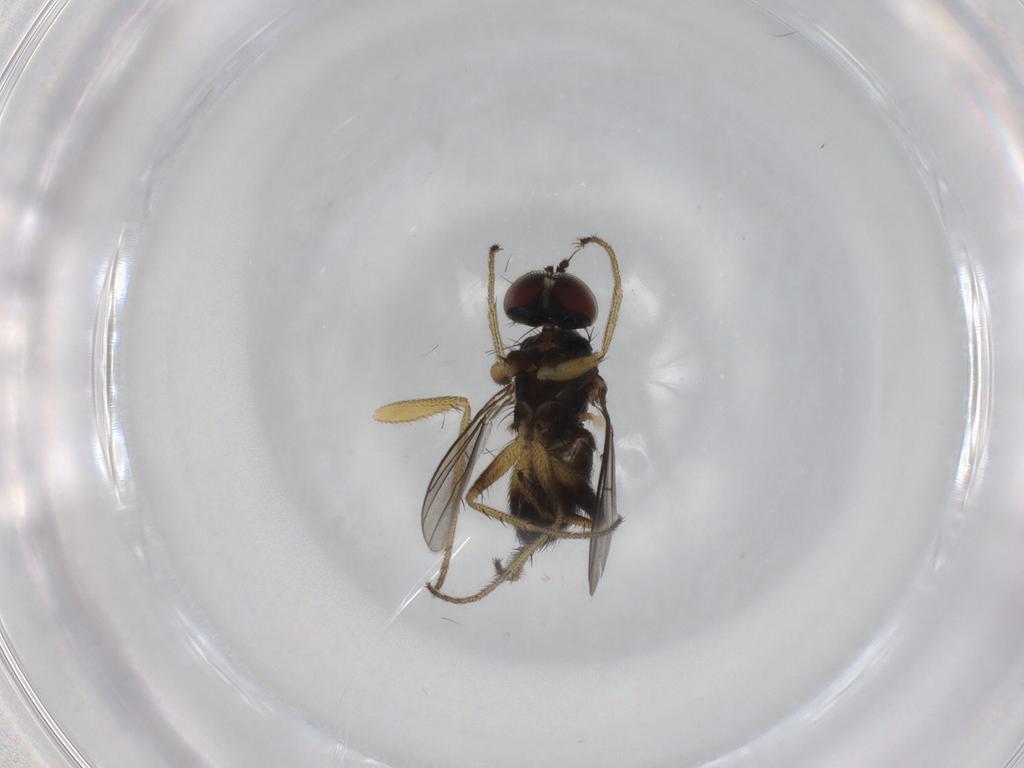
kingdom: Animalia
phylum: Arthropoda
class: Insecta
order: Diptera
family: Dolichopodidae
